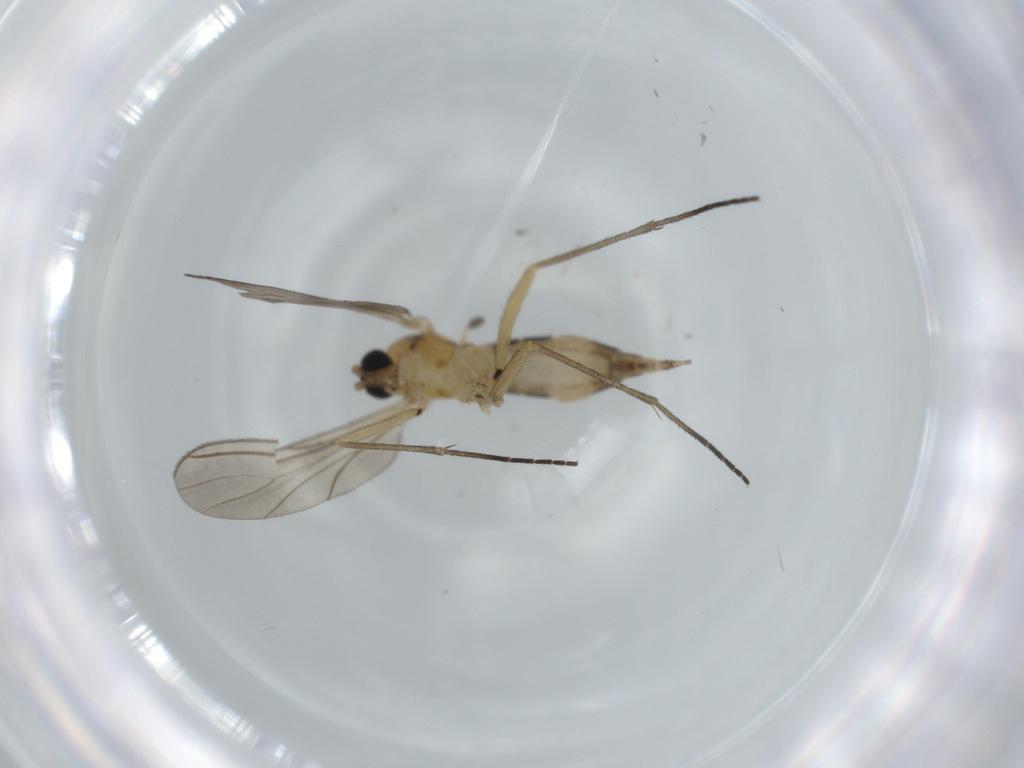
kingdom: Animalia
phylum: Arthropoda
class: Insecta
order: Diptera
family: Sciaridae
